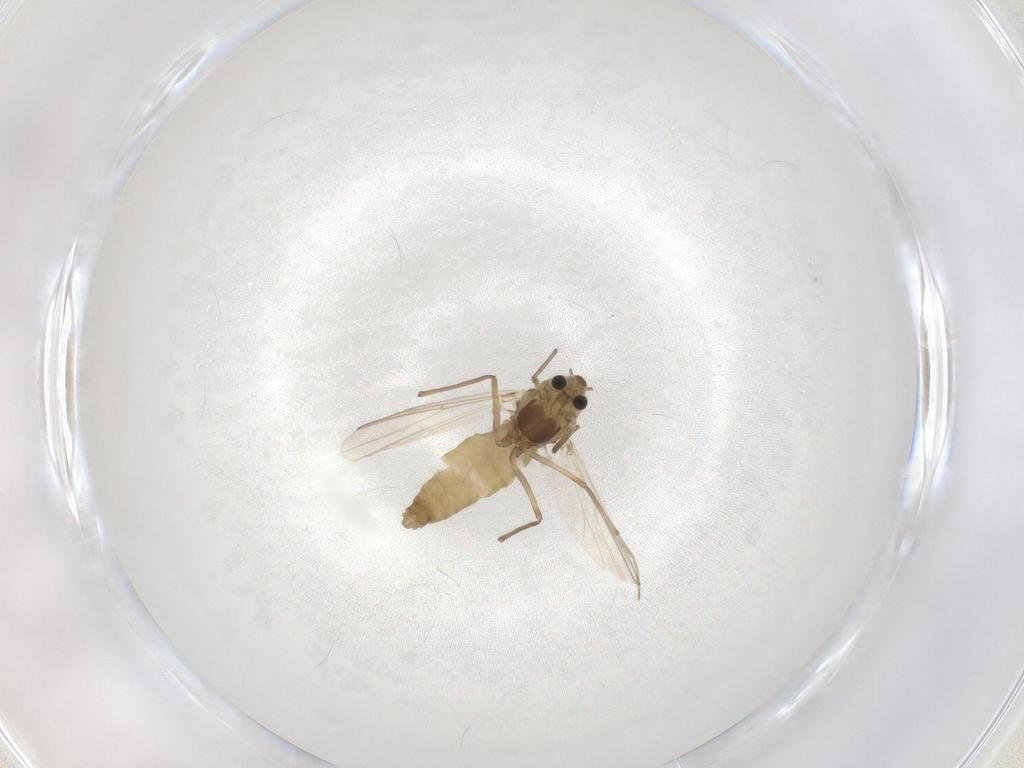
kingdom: Animalia
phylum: Arthropoda
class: Insecta
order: Diptera
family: Chironomidae
